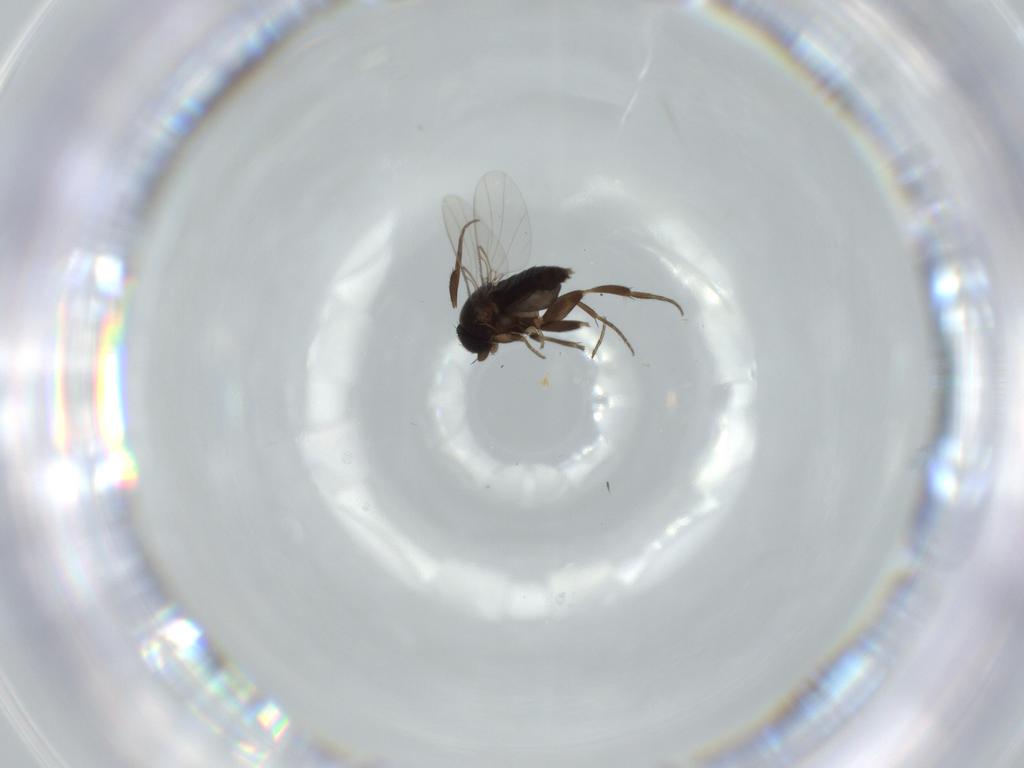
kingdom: Animalia
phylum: Arthropoda
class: Insecta
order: Diptera
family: Phoridae
